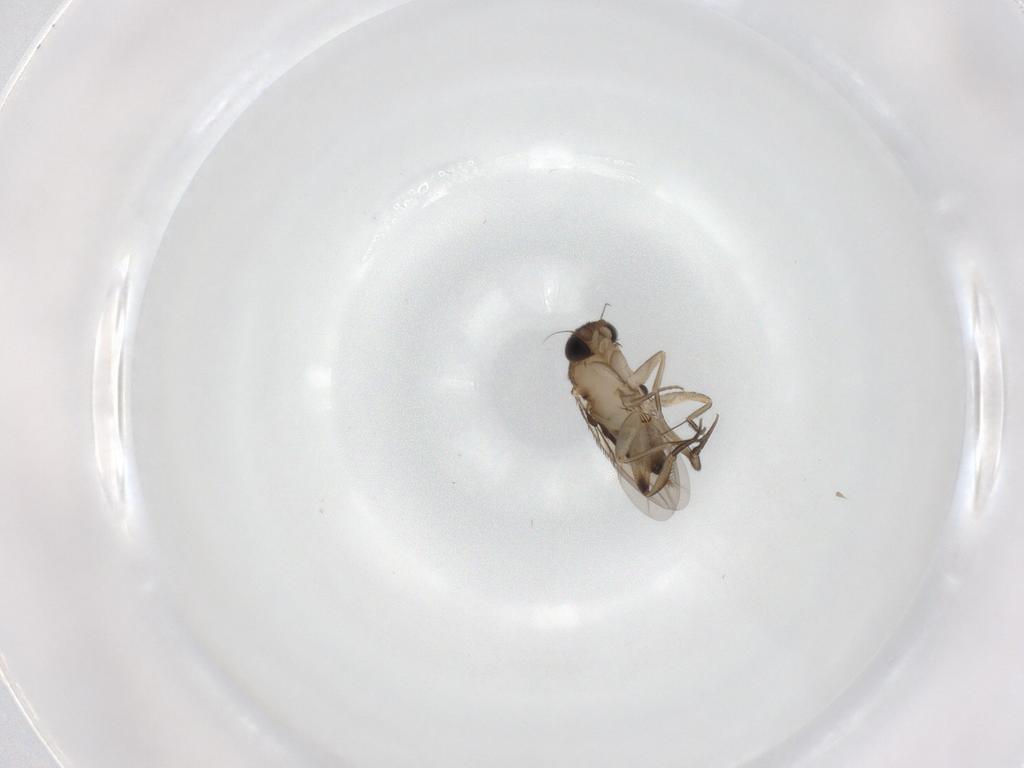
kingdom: Animalia
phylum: Arthropoda
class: Insecta
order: Diptera
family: Phoridae
